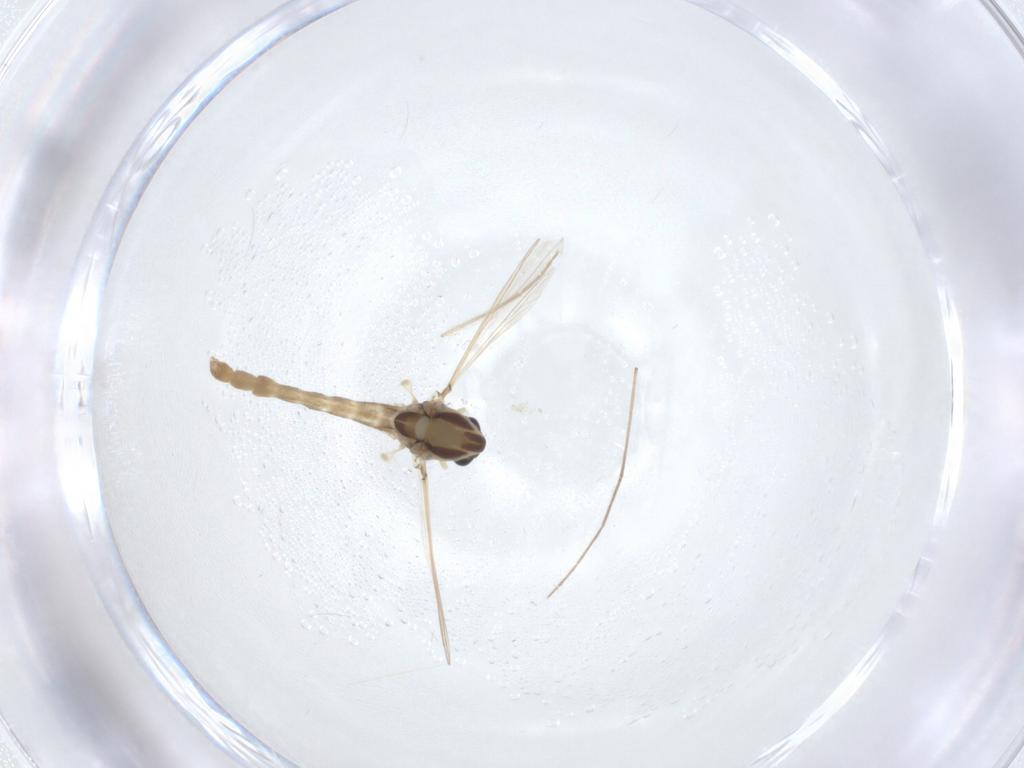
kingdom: Animalia
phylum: Arthropoda
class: Insecta
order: Diptera
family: Chironomidae
